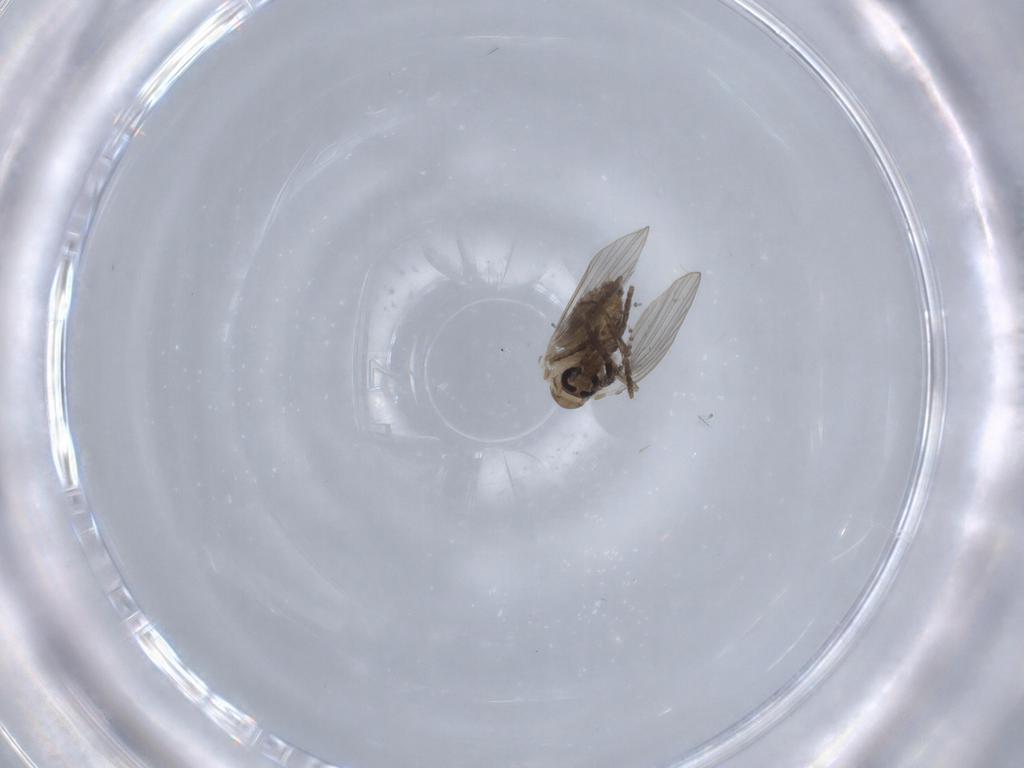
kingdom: Animalia
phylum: Arthropoda
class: Insecta
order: Diptera
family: Psychodidae
